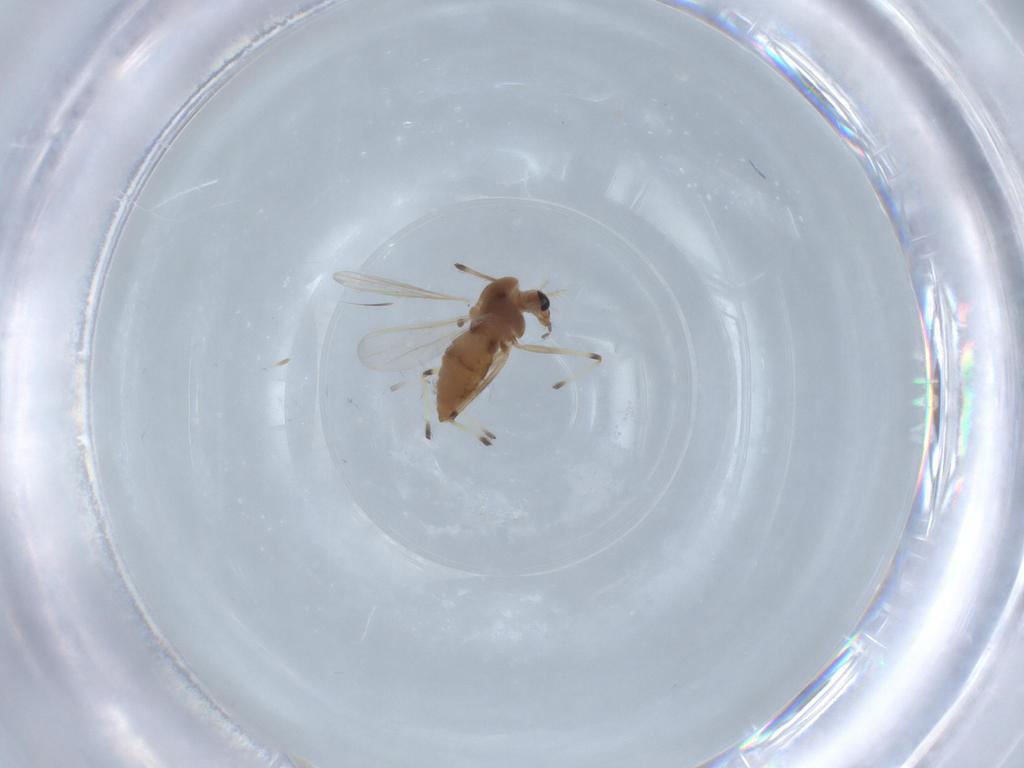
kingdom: Animalia
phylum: Arthropoda
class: Insecta
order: Diptera
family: Chironomidae
